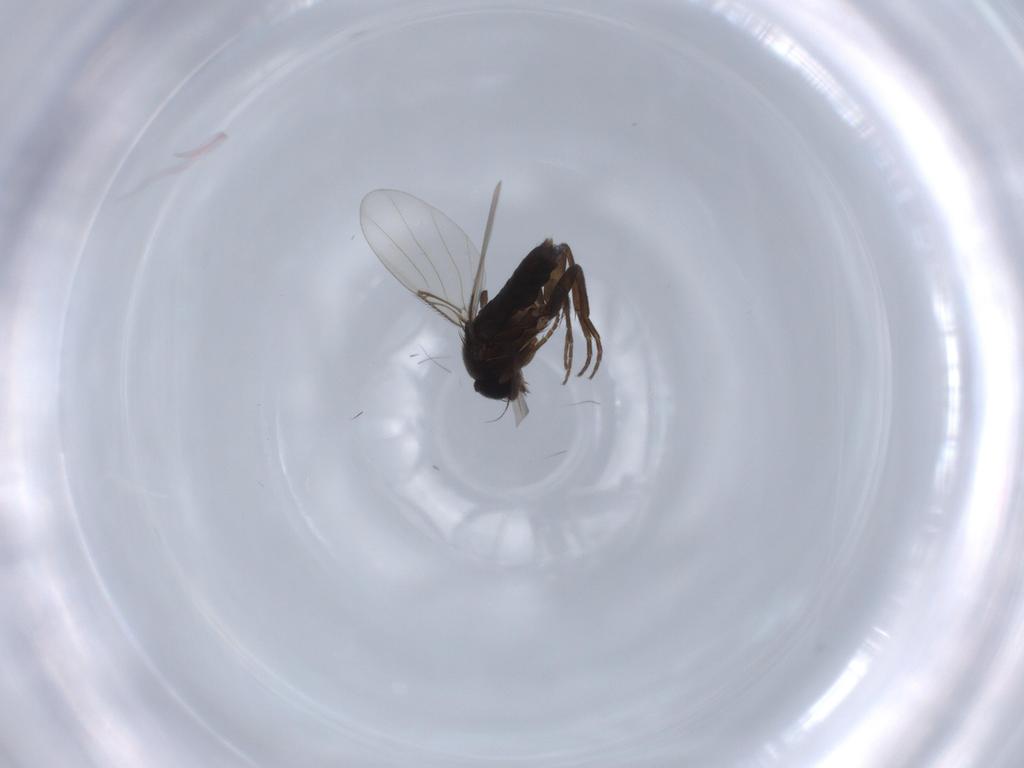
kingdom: Animalia
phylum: Arthropoda
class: Insecta
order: Diptera
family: Phoridae
